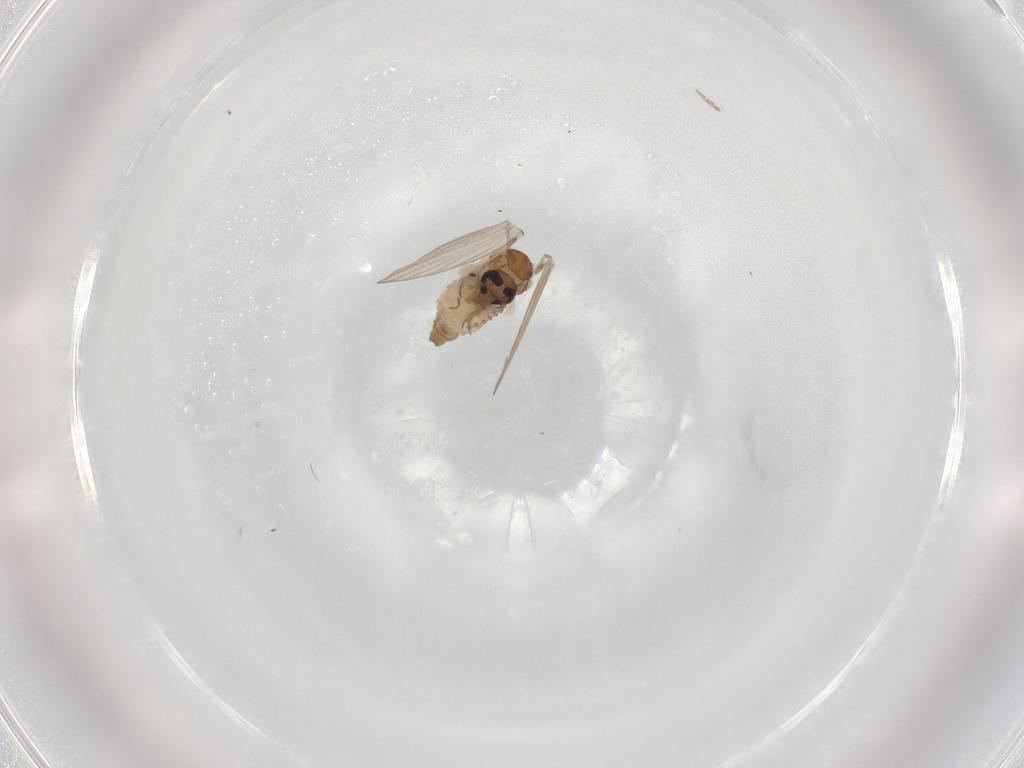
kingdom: Animalia
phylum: Arthropoda
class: Insecta
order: Diptera
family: Psychodidae
